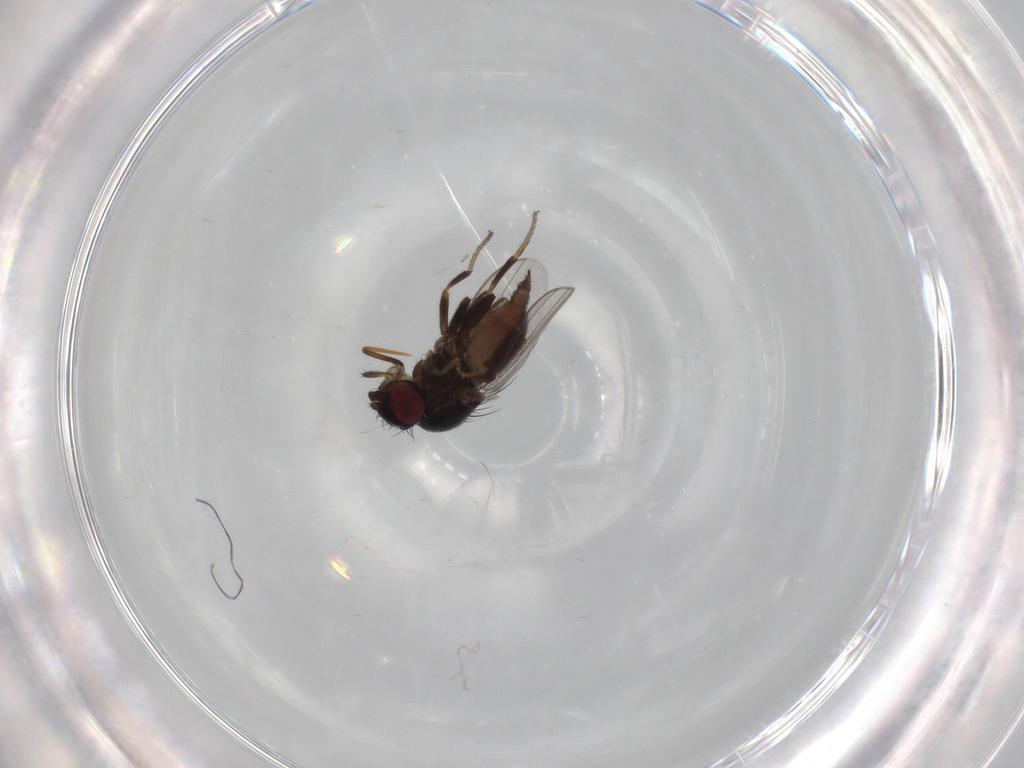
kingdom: Animalia
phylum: Arthropoda
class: Insecta
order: Diptera
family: Milichiidae
